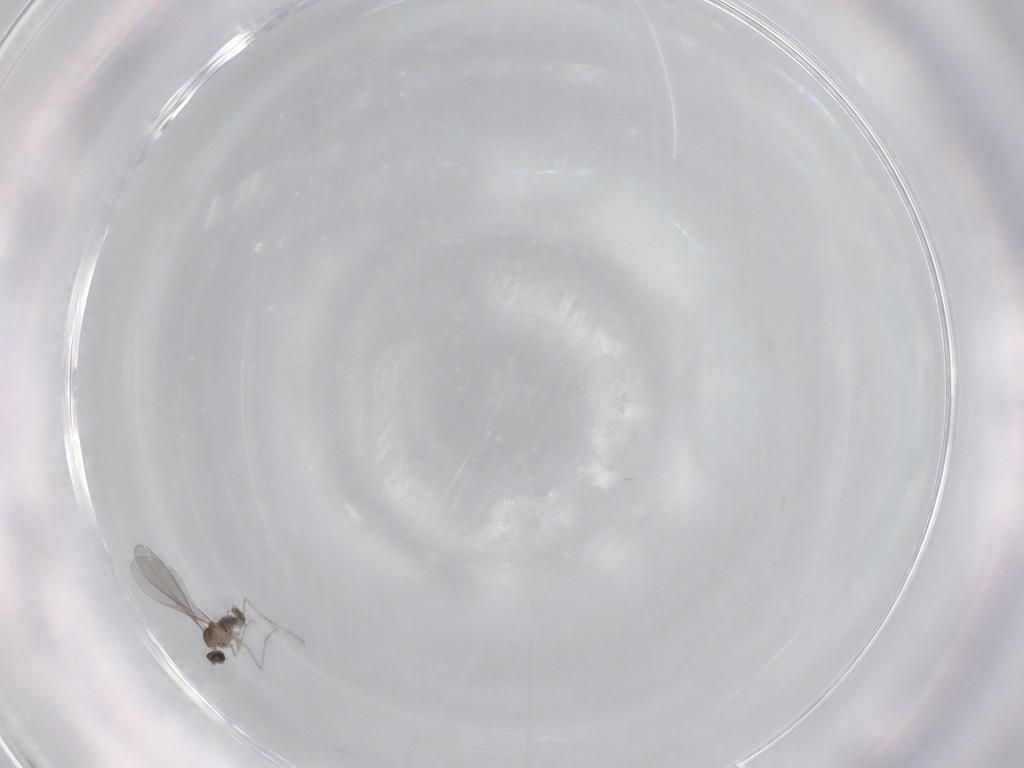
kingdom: Animalia
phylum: Arthropoda
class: Insecta
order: Diptera
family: Cecidomyiidae
